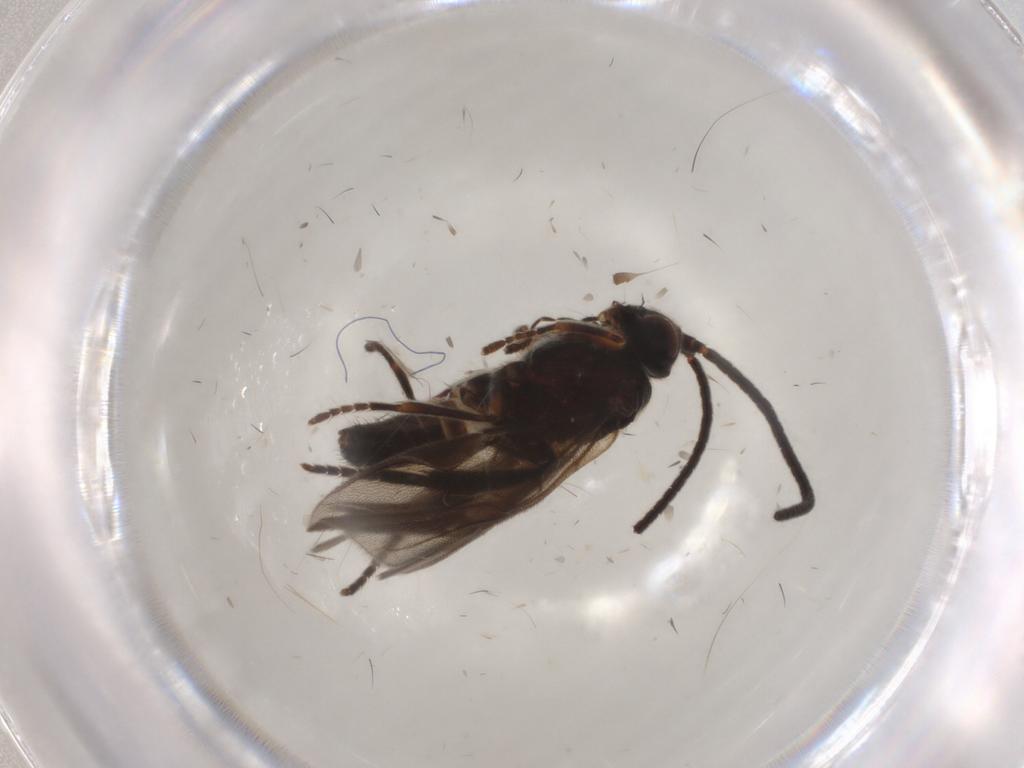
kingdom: Animalia
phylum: Arthropoda
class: Insecta
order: Hymenoptera
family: Braconidae
